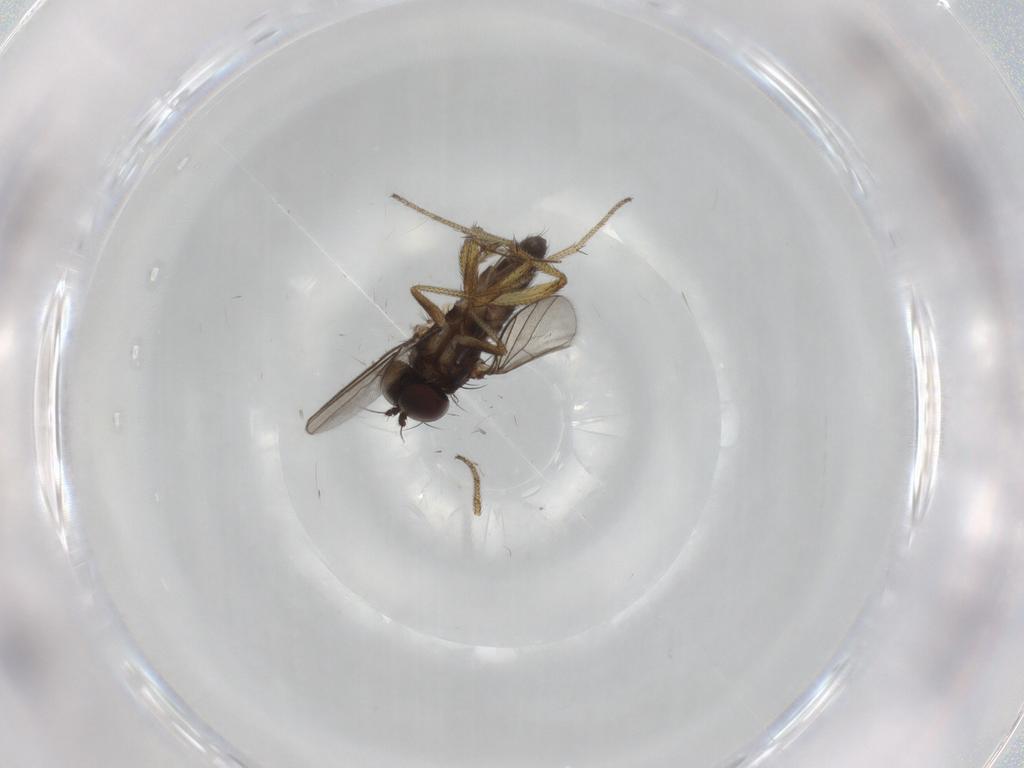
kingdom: Animalia
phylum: Arthropoda
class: Insecta
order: Diptera
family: Chironomidae
